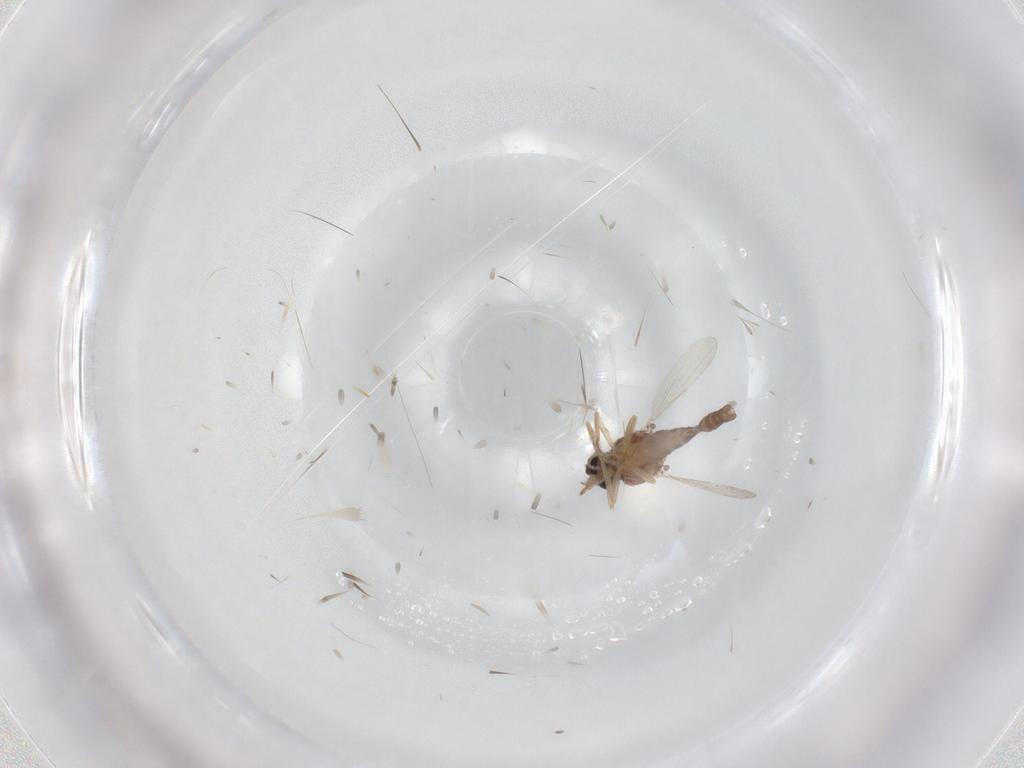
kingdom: Animalia
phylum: Arthropoda
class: Insecta
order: Diptera
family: Ceratopogonidae
